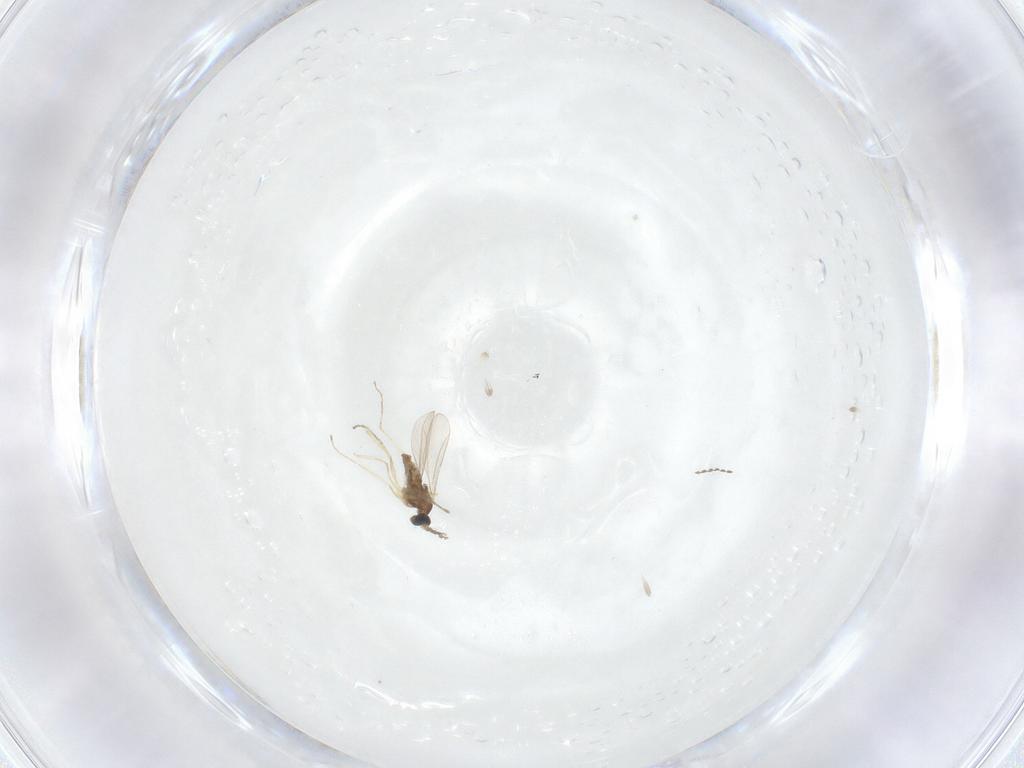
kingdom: Animalia
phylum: Arthropoda
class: Insecta
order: Diptera
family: Cecidomyiidae
